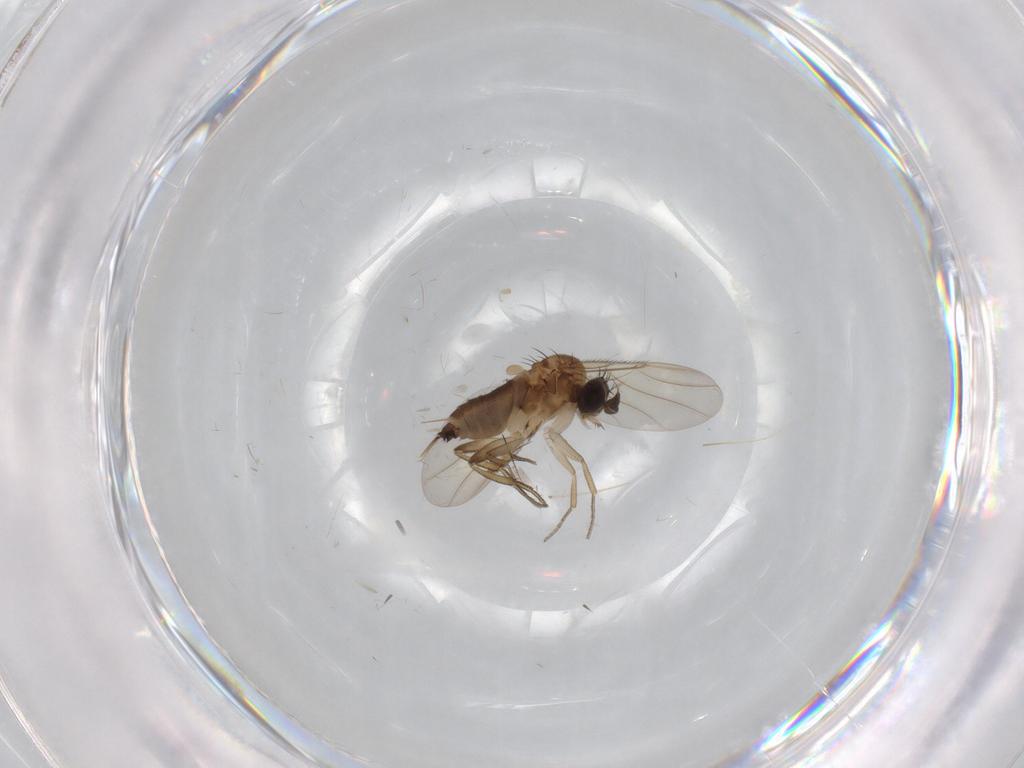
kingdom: Animalia
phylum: Arthropoda
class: Insecta
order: Diptera
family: Phoridae
